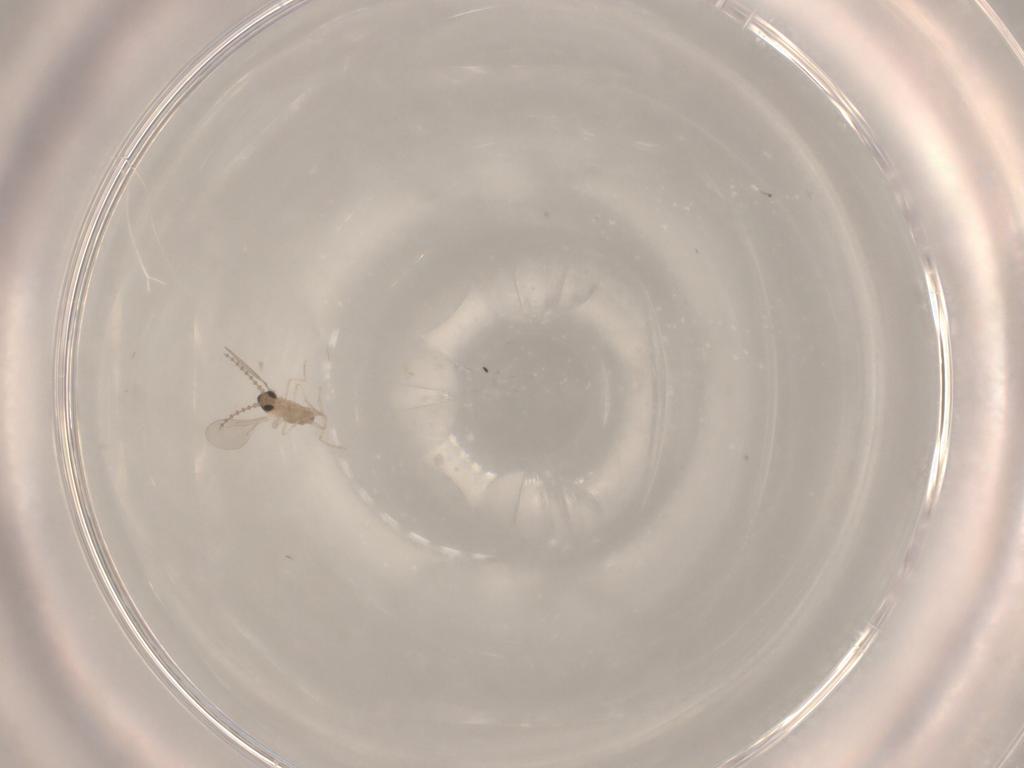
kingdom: Animalia
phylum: Arthropoda
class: Insecta
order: Diptera
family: Cecidomyiidae
